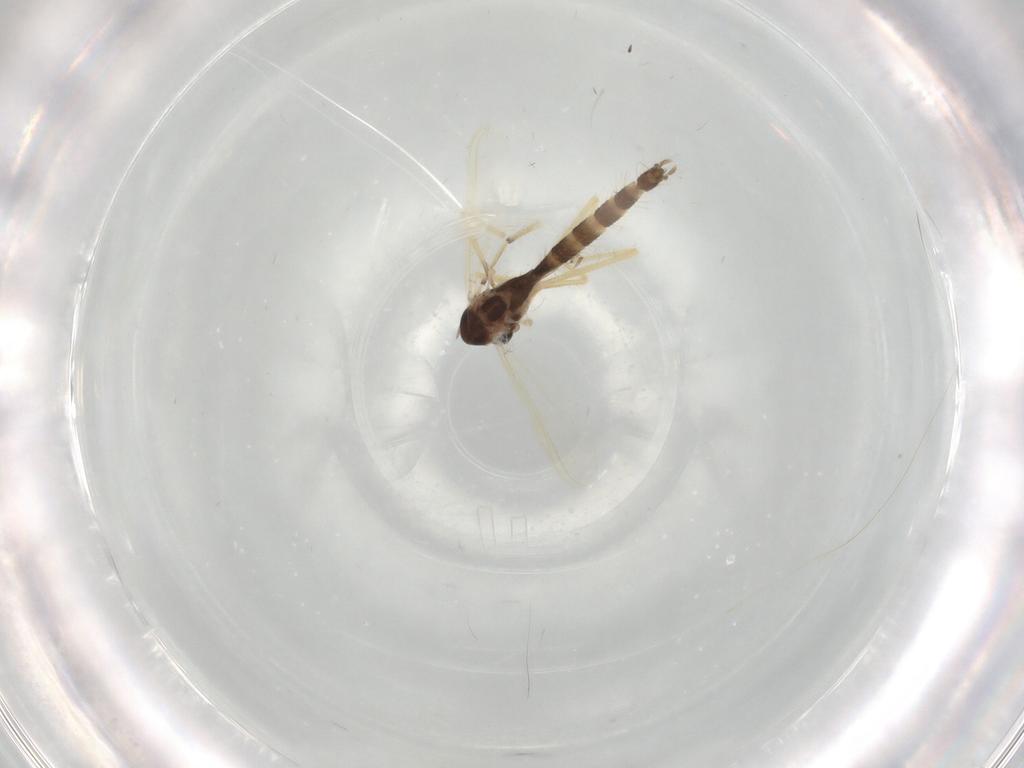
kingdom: Animalia
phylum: Arthropoda
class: Insecta
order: Diptera
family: Chironomidae
